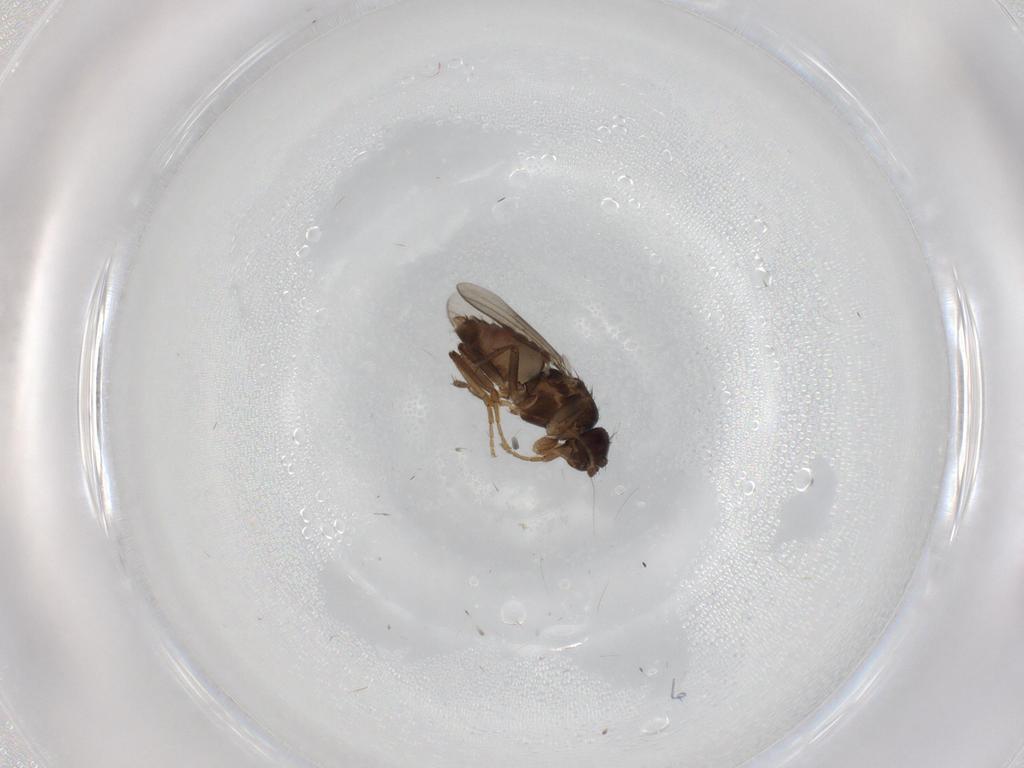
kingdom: Animalia
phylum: Arthropoda
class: Insecta
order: Diptera
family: Sphaeroceridae
